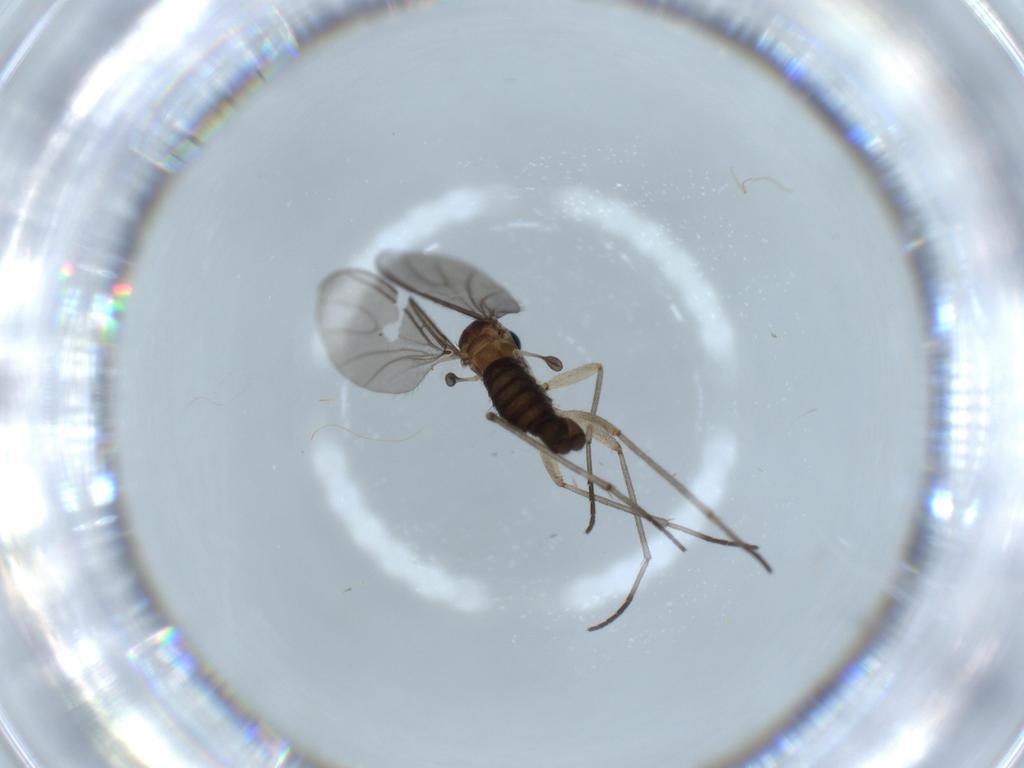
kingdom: Animalia
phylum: Arthropoda
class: Insecta
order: Diptera
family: Sciaridae
